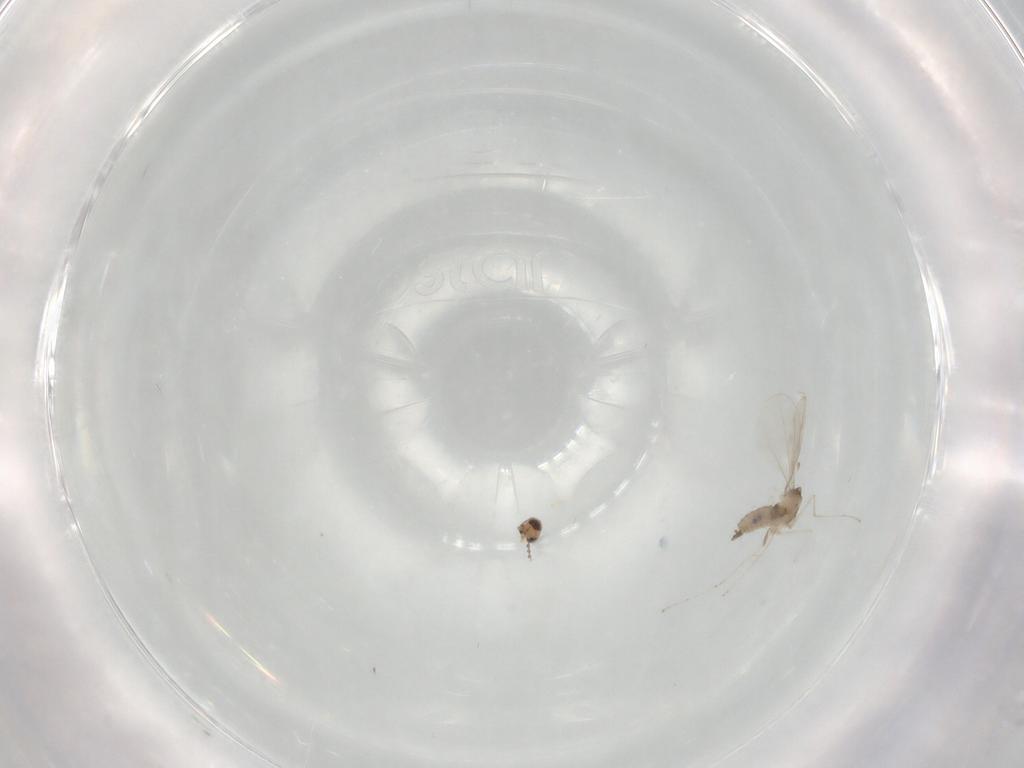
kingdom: Animalia
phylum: Arthropoda
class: Insecta
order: Diptera
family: Cecidomyiidae
